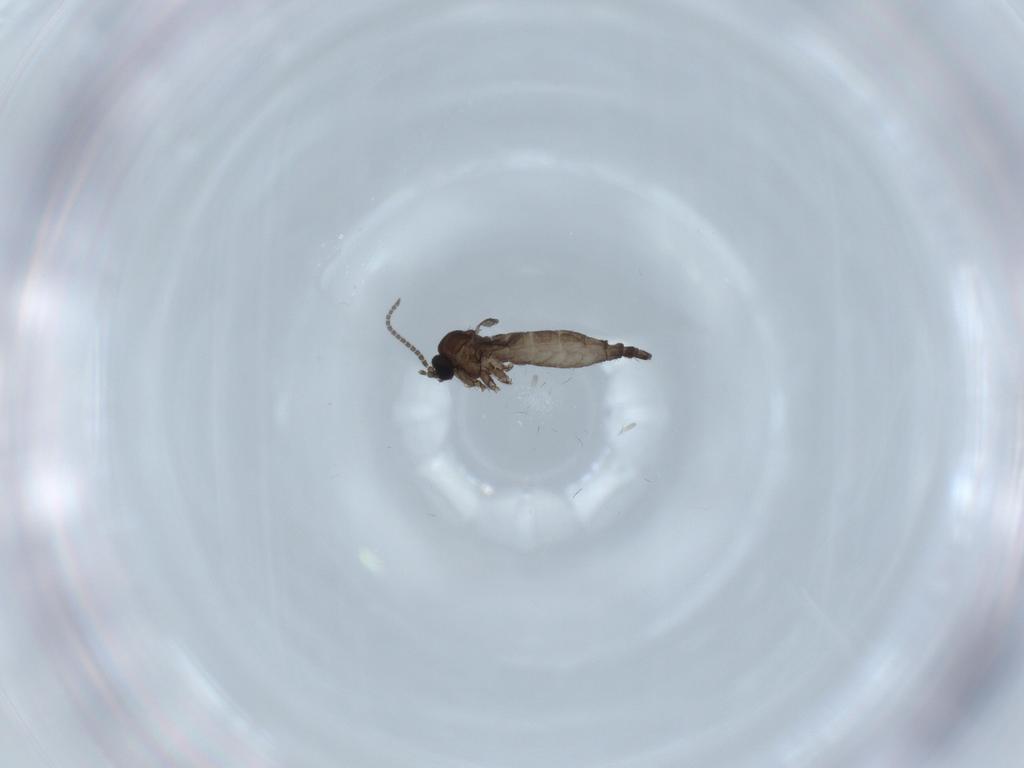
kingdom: Animalia
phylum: Arthropoda
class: Insecta
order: Diptera
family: Sciaridae
